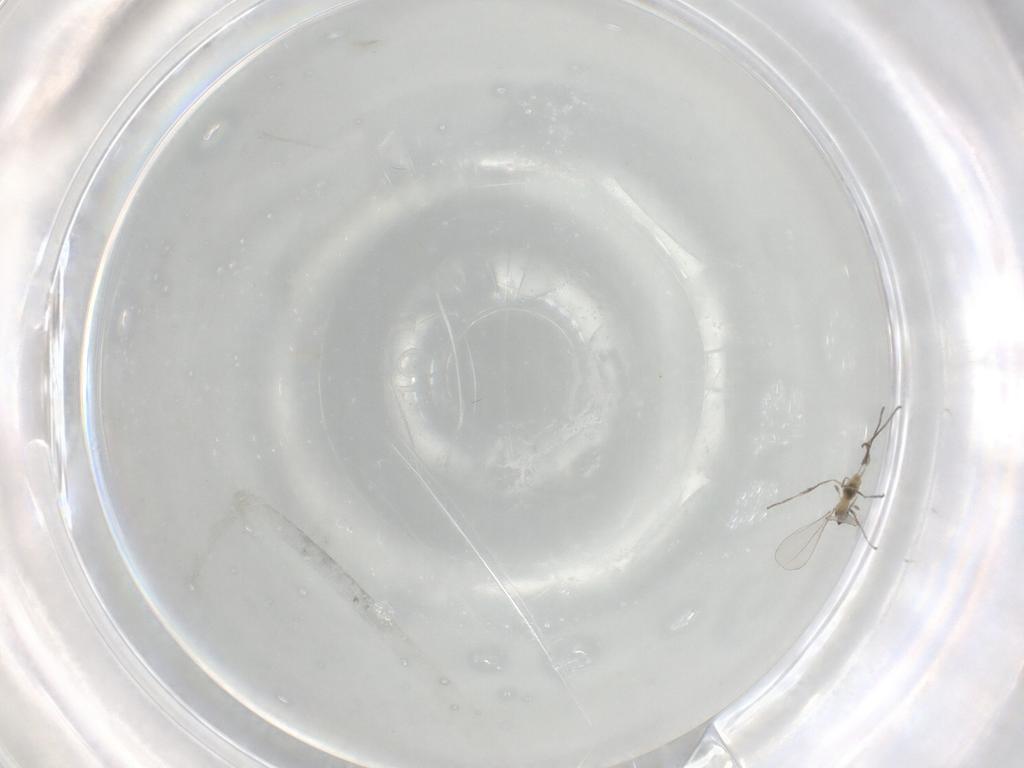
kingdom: Animalia
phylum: Arthropoda
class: Insecta
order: Diptera
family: Cecidomyiidae
